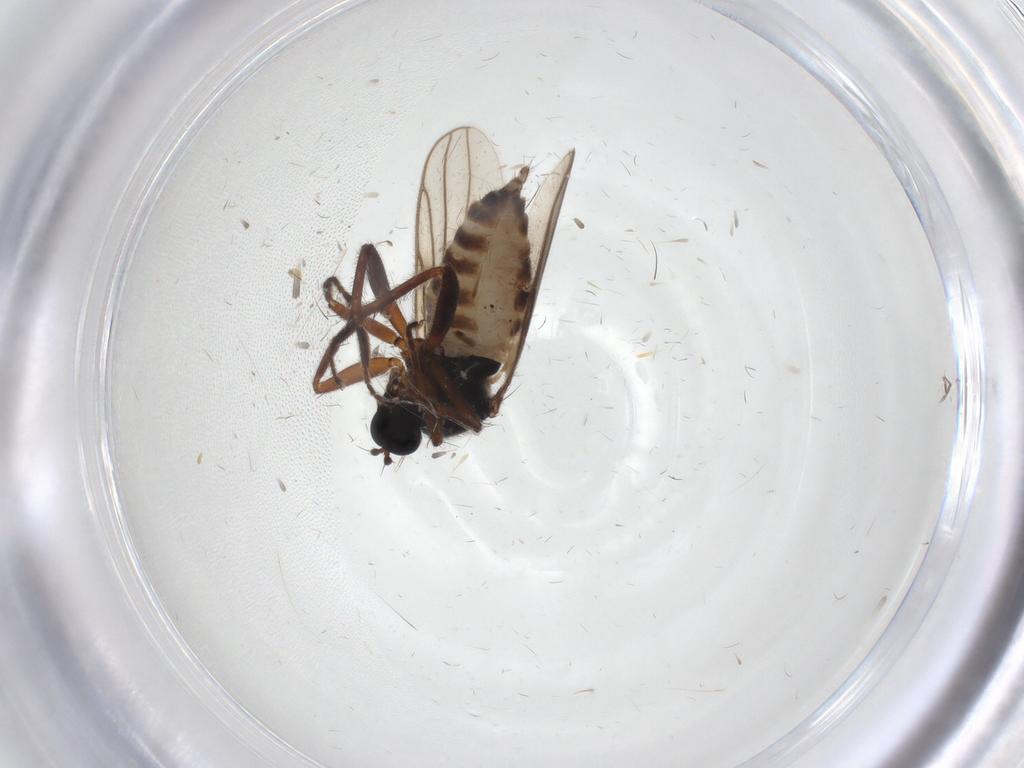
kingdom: Animalia
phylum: Arthropoda
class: Insecta
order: Diptera
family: Hybotidae
